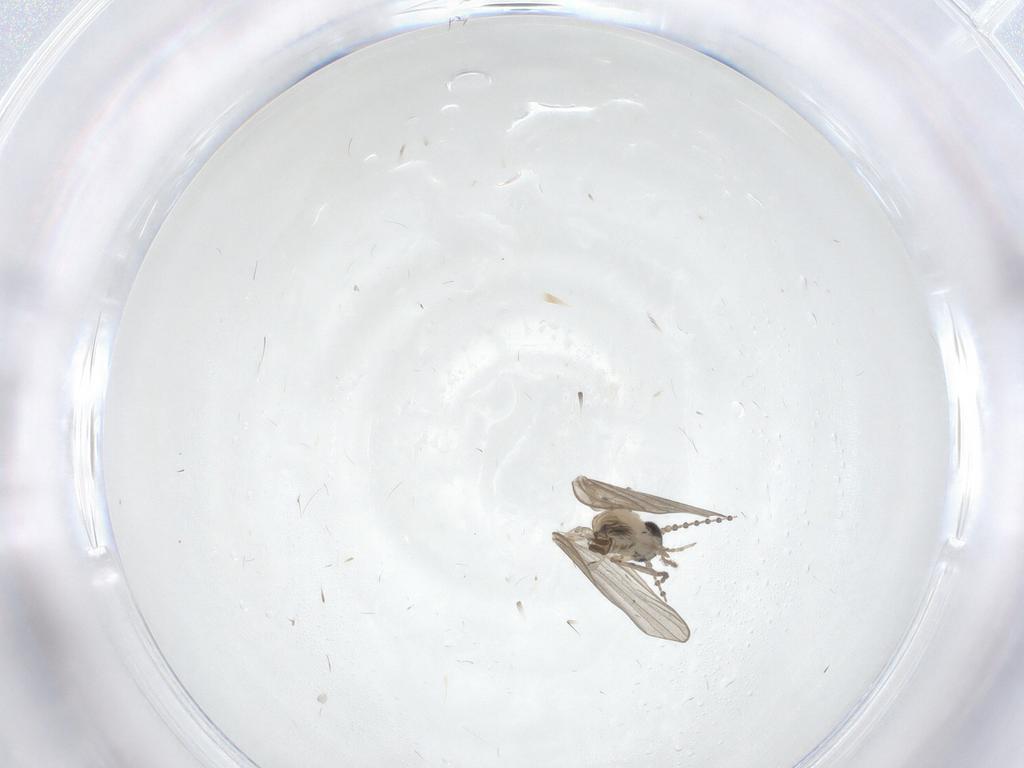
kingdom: Animalia
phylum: Arthropoda
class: Insecta
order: Diptera
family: Psychodidae
